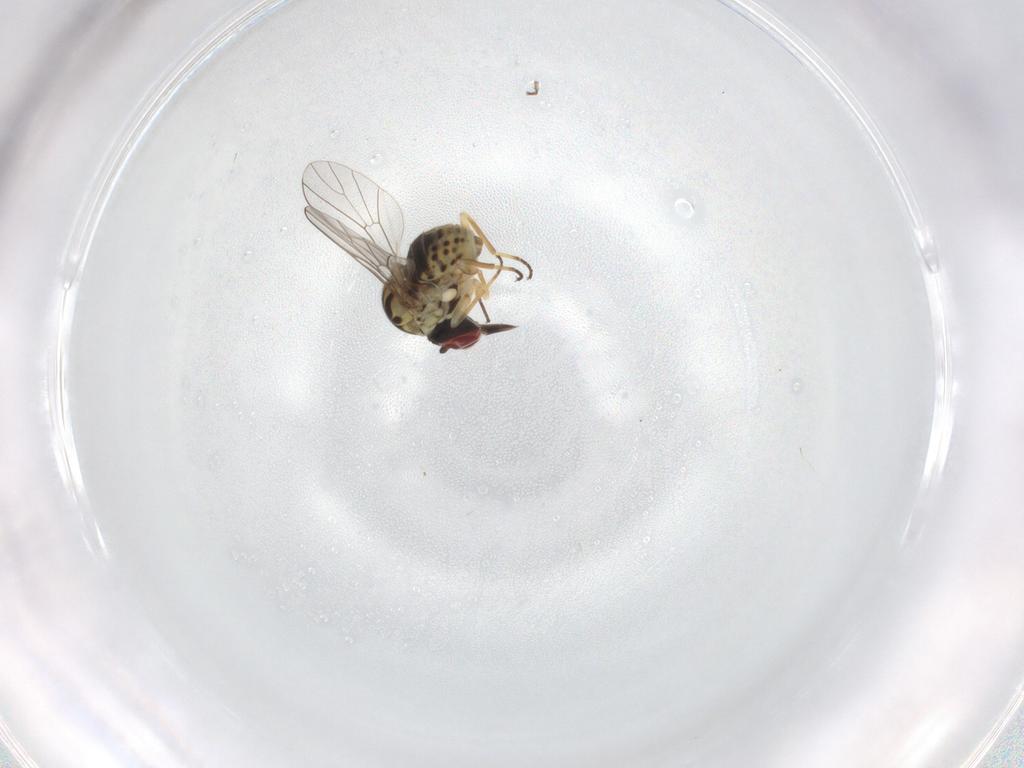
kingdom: Animalia
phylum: Arthropoda
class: Insecta
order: Diptera
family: Bombyliidae
